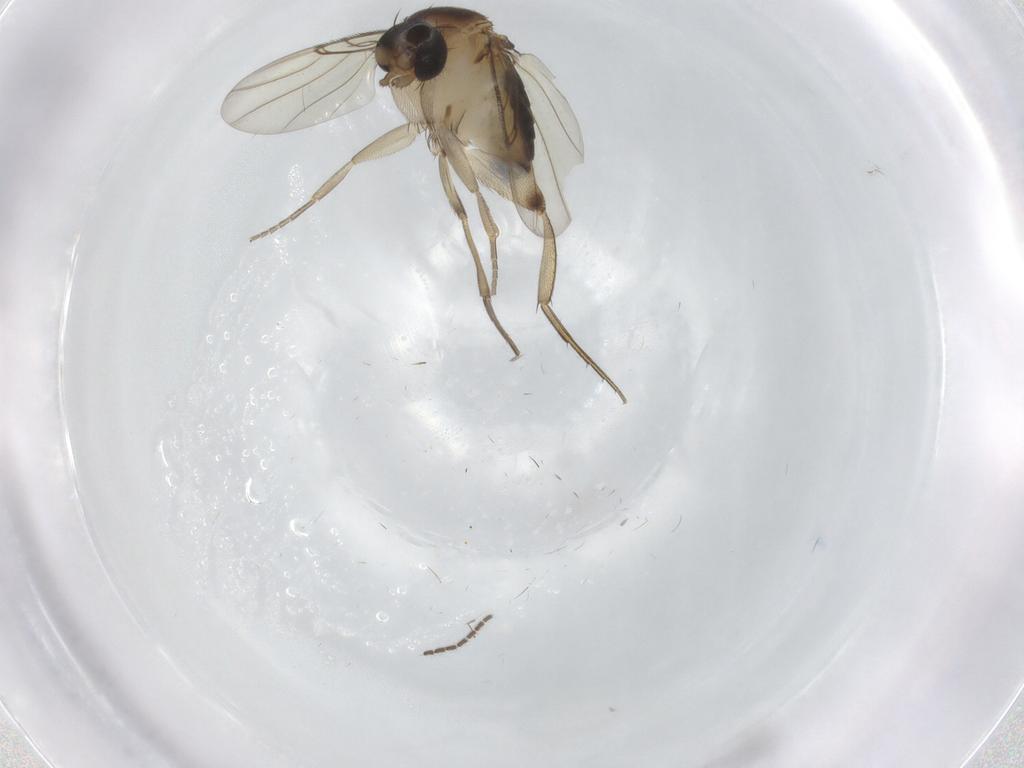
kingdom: Animalia
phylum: Arthropoda
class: Insecta
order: Diptera
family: Phoridae
